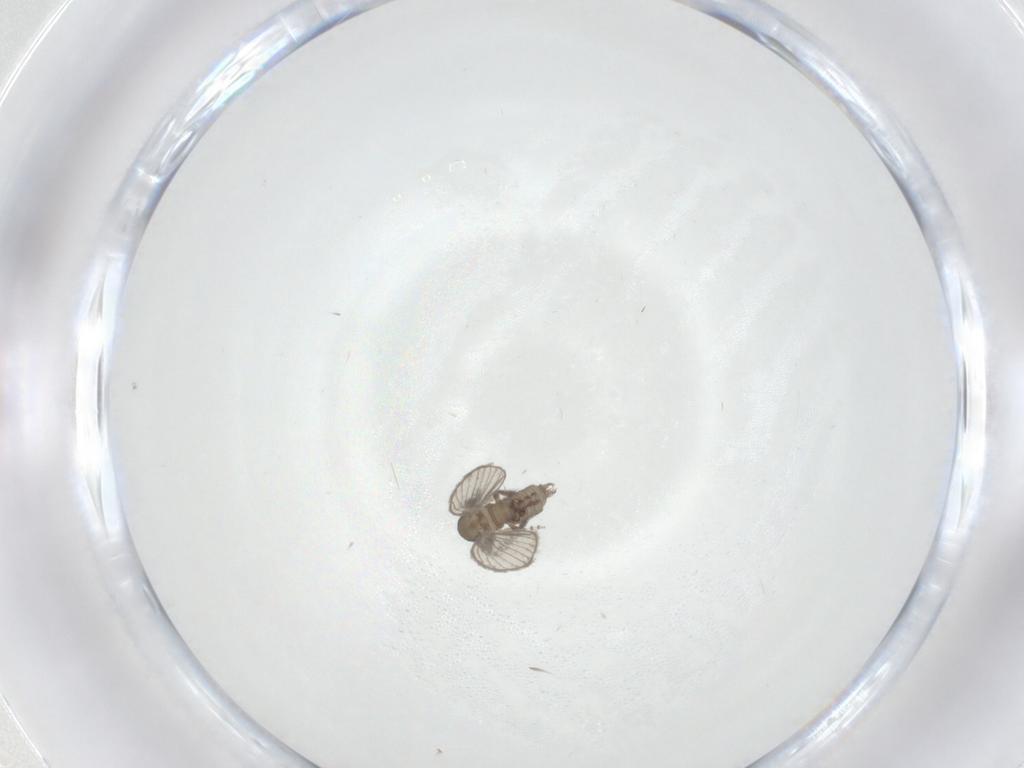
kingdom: Animalia
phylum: Arthropoda
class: Insecta
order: Diptera
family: Psychodidae
